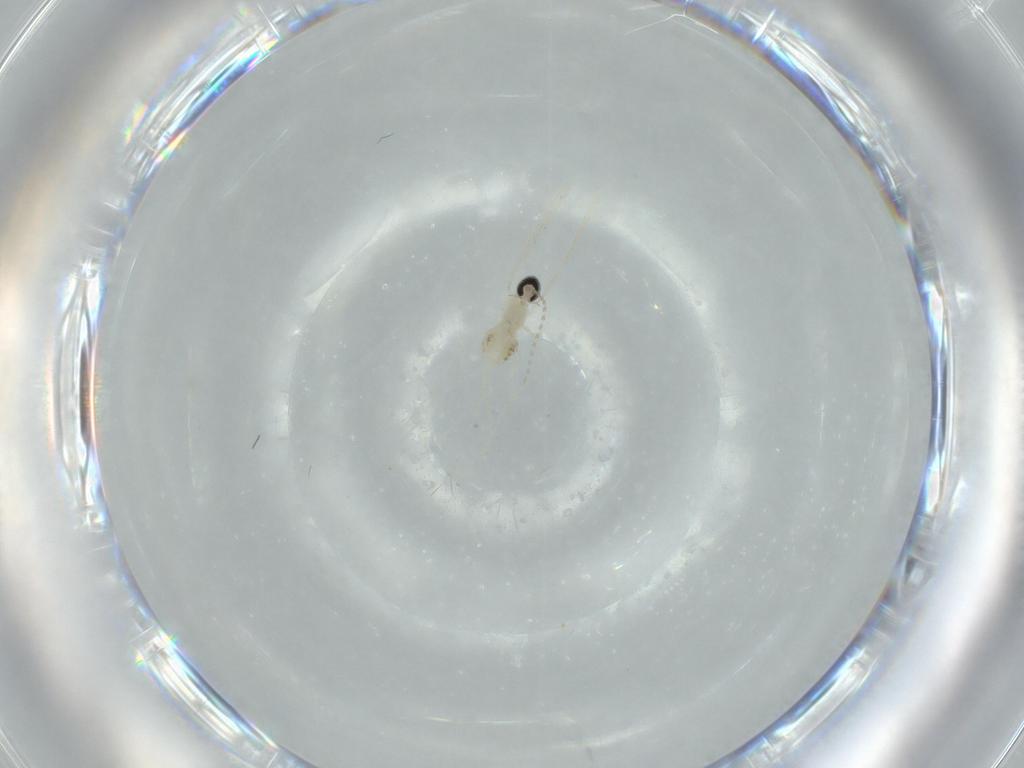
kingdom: Animalia
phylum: Arthropoda
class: Insecta
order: Diptera
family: Cecidomyiidae
